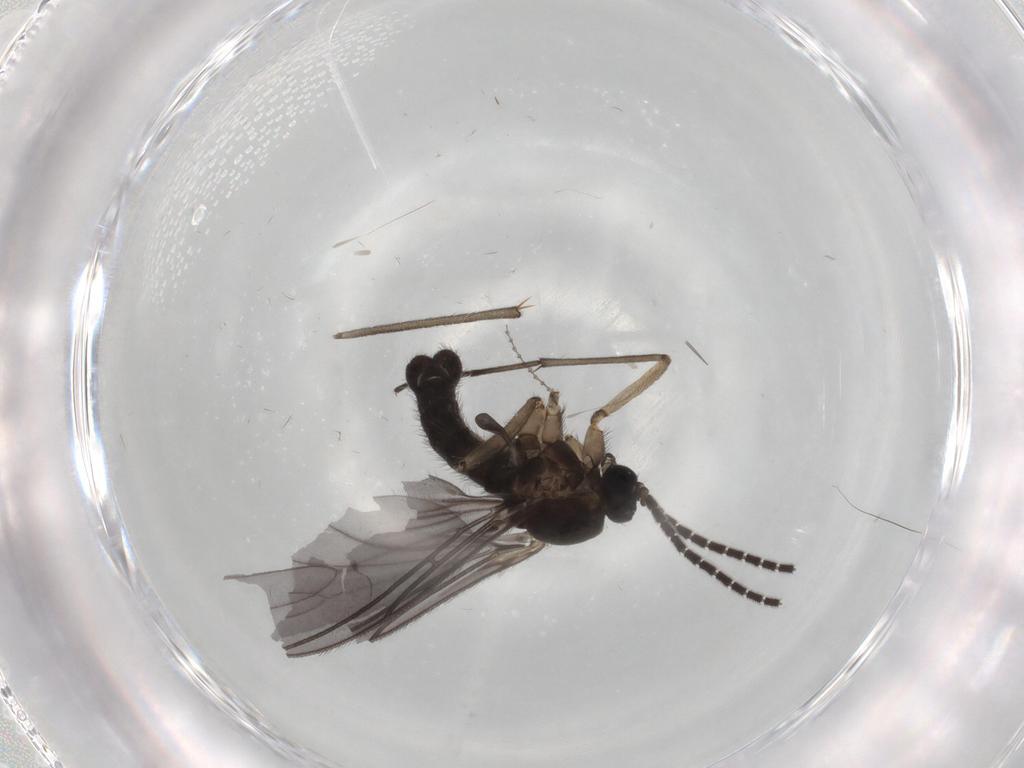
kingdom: Animalia
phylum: Arthropoda
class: Insecta
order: Diptera
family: Sciaridae
